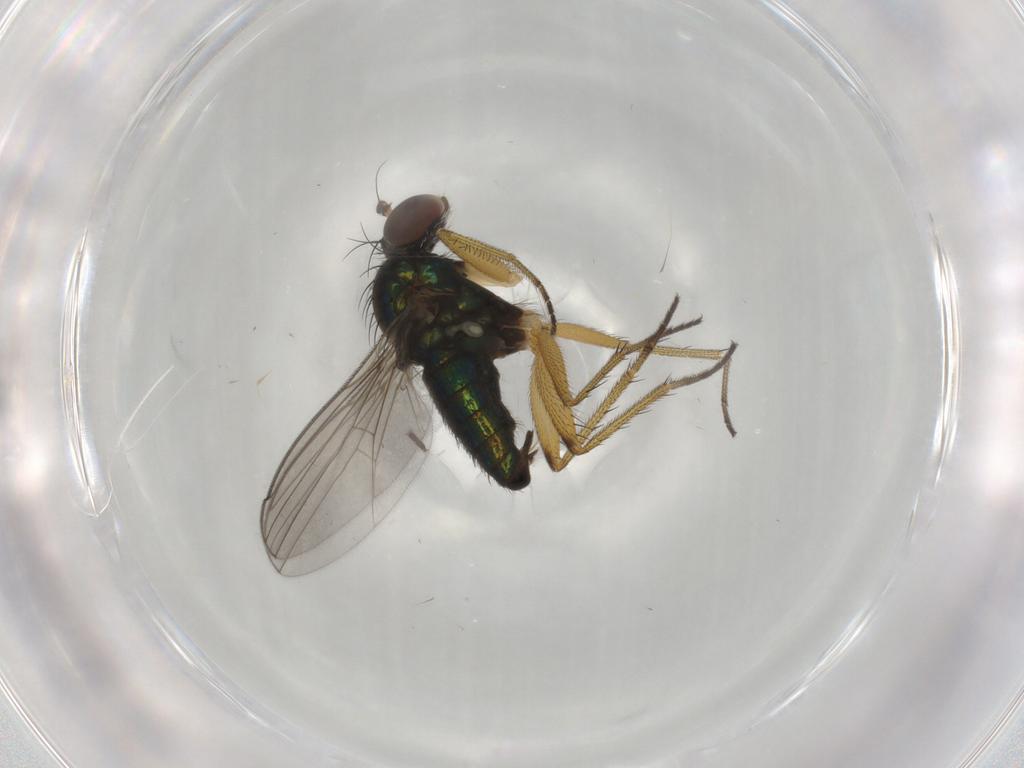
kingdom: Animalia
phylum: Arthropoda
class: Insecta
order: Diptera
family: Dolichopodidae
